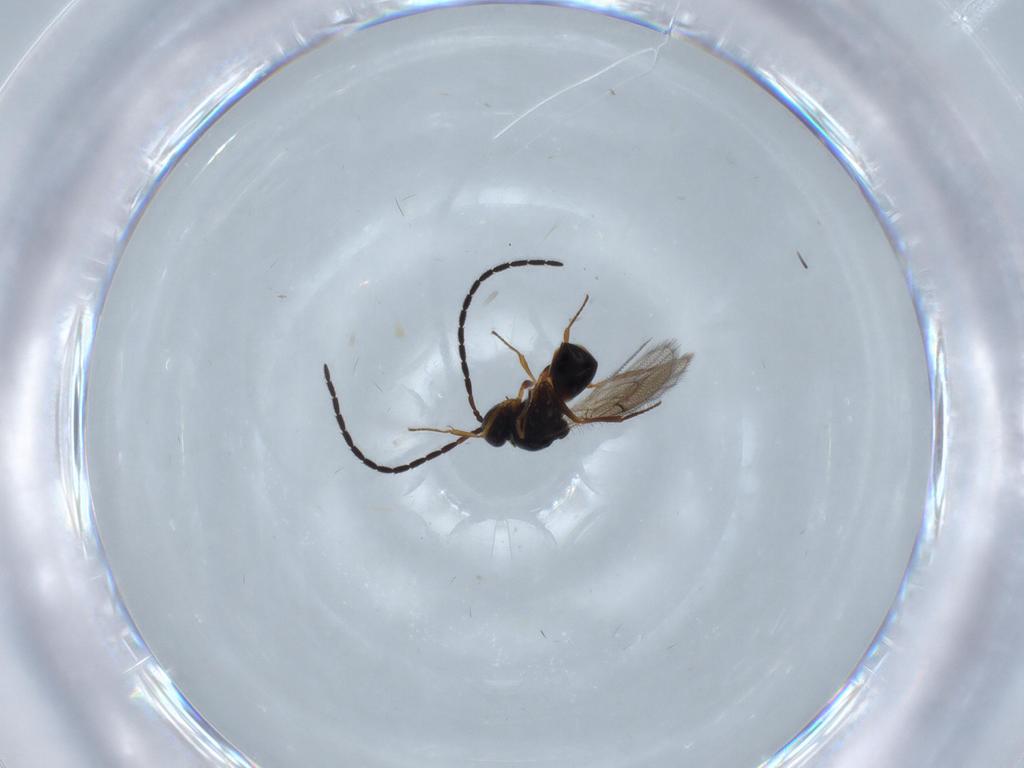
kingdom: Animalia
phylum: Arthropoda
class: Insecta
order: Hymenoptera
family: Figitidae
